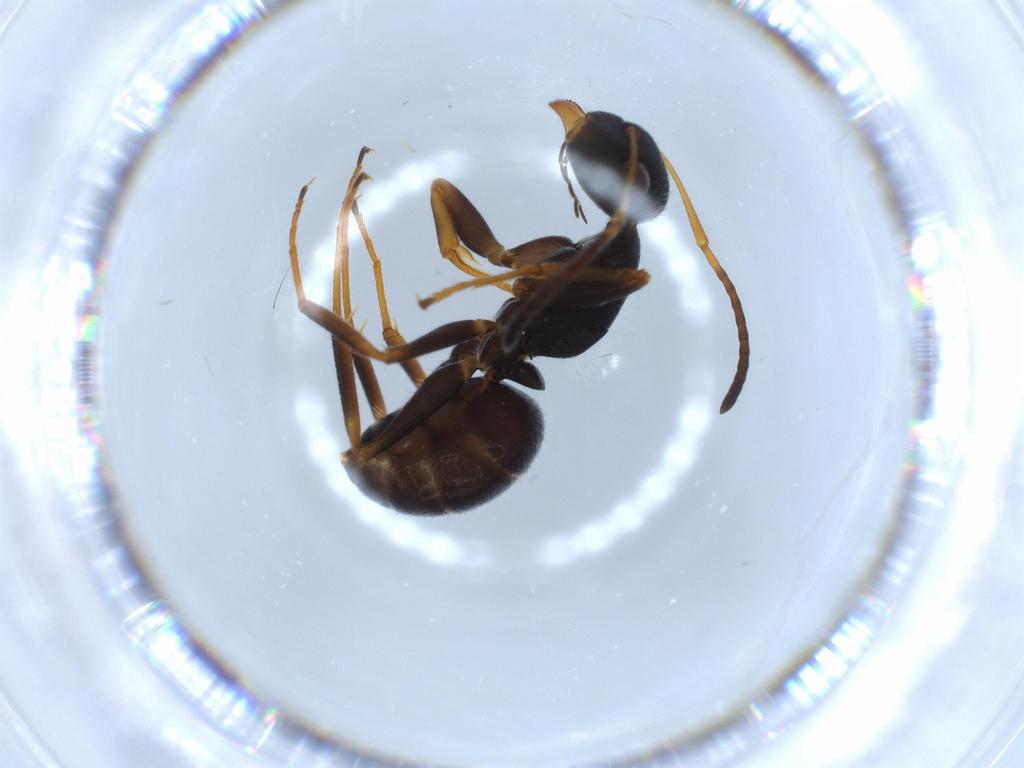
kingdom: Animalia
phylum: Arthropoda
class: Insecta
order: Hymenoptera
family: Formicidae
